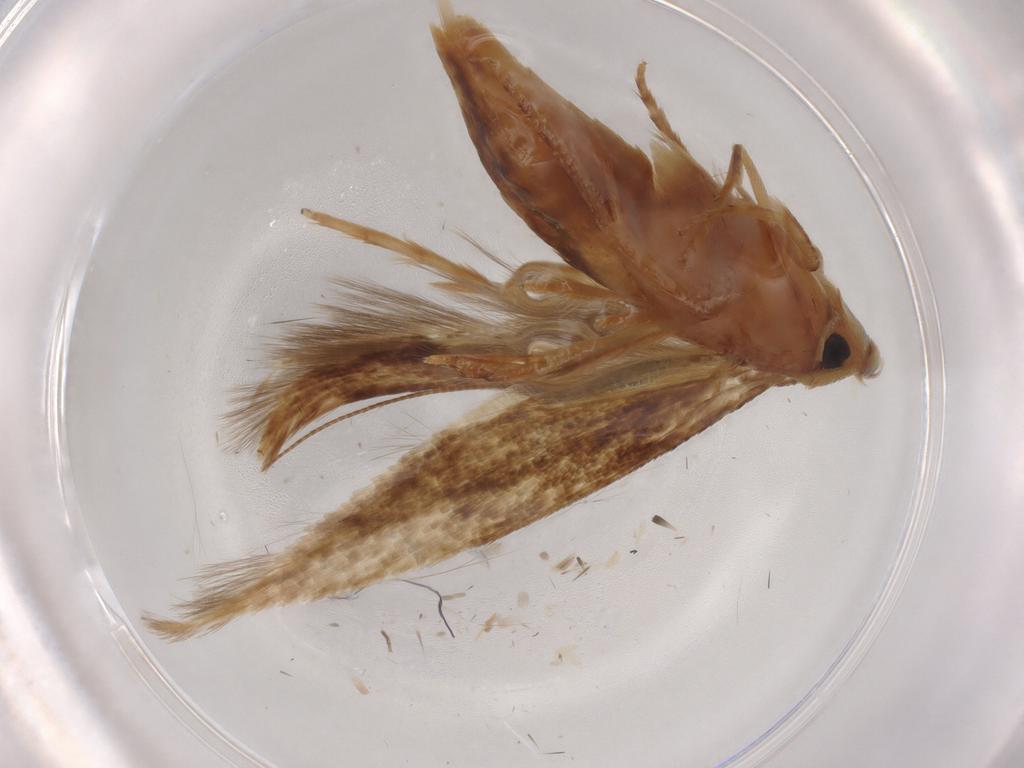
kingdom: Animalia
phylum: Arthropoda
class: Insecta
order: Lepidoptera
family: Tineidae
